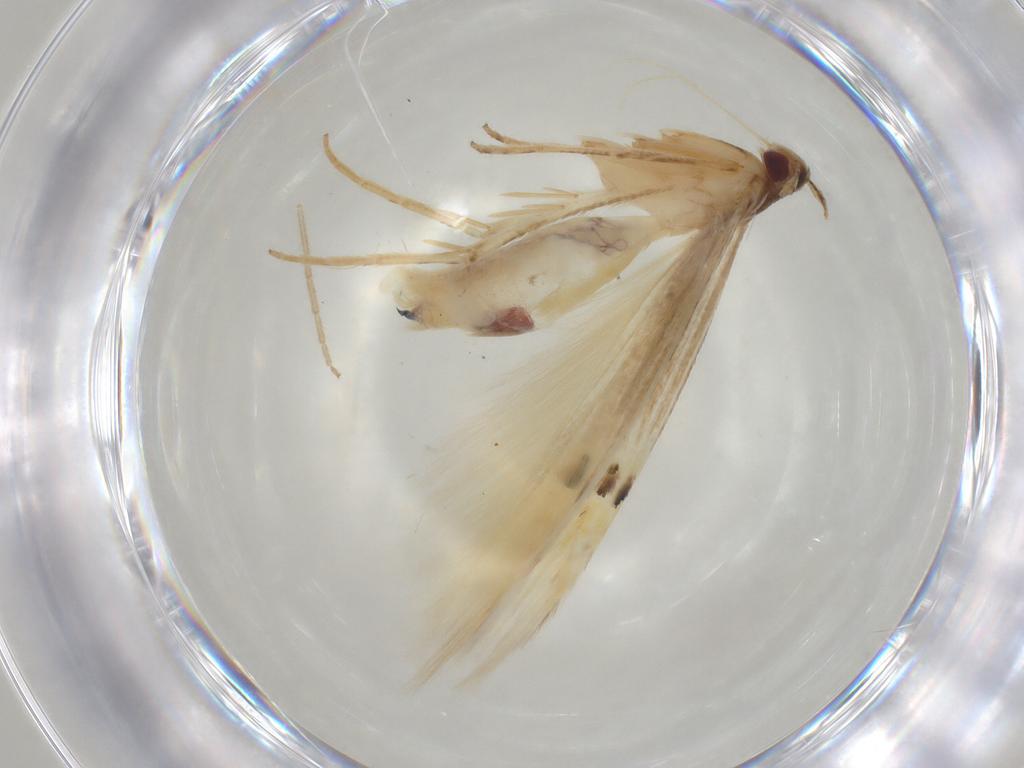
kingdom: Animalia
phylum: Arthropoda
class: Insecta
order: Lepidoptera
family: Cosmopterigidae
